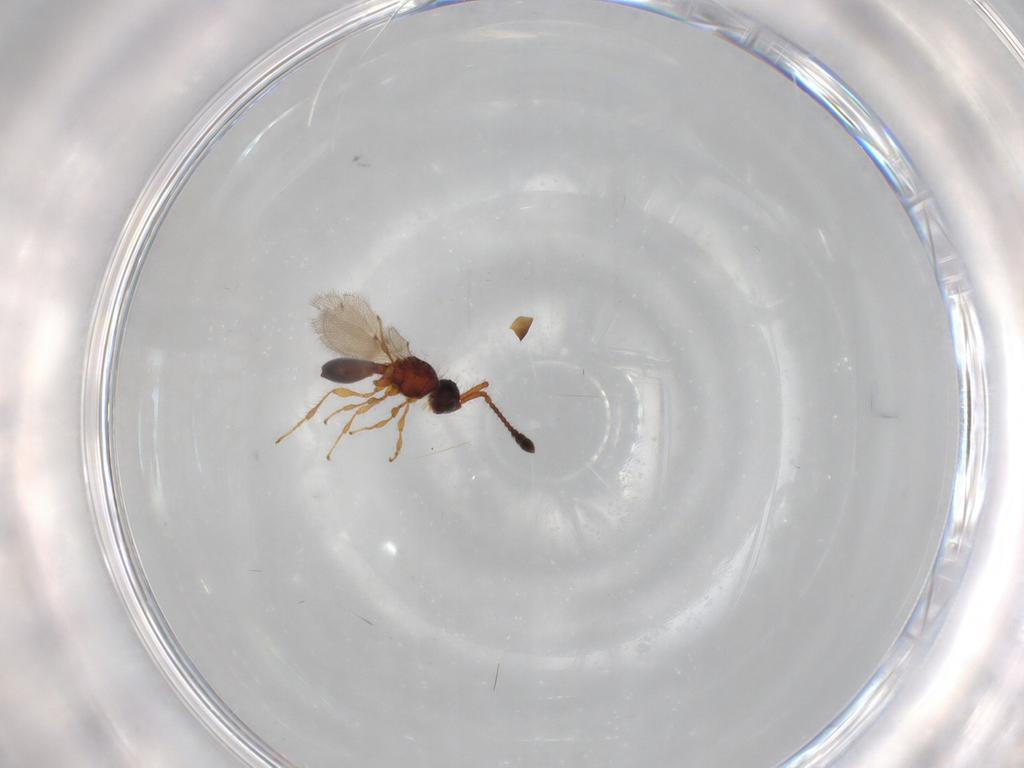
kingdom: Animalia
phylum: Arthropoda
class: Insecta
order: Hymenoptera
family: Diapriidae
